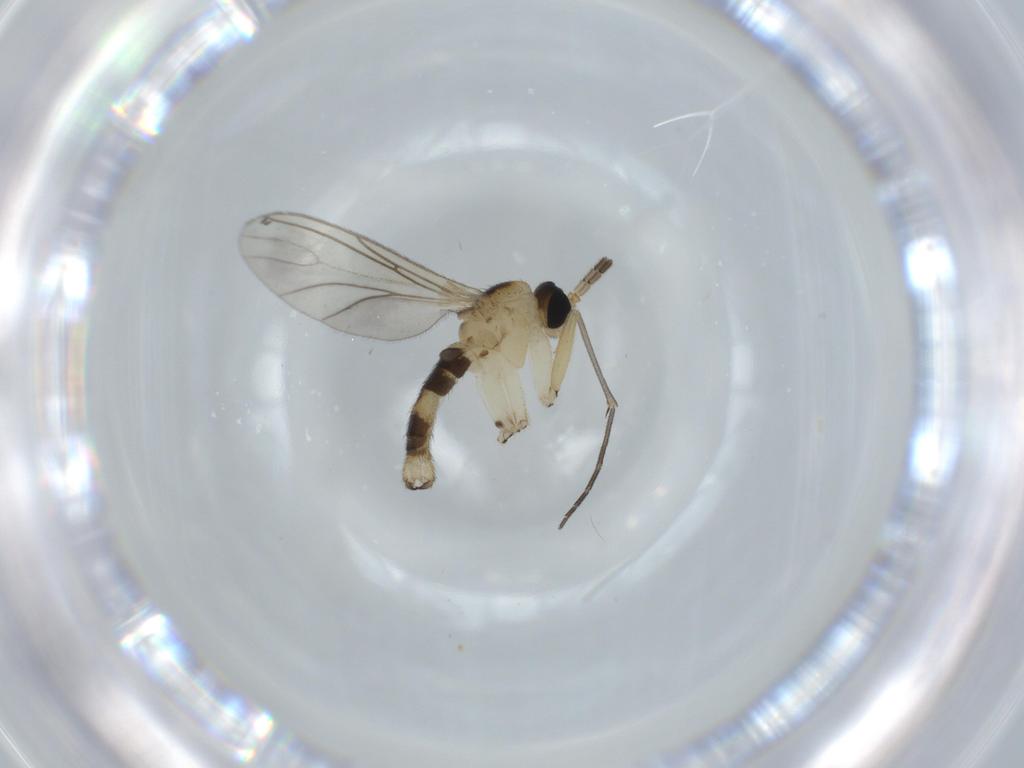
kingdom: Animalia
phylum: Arthropoda
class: Insecta
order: Diptera
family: Sciaridae
